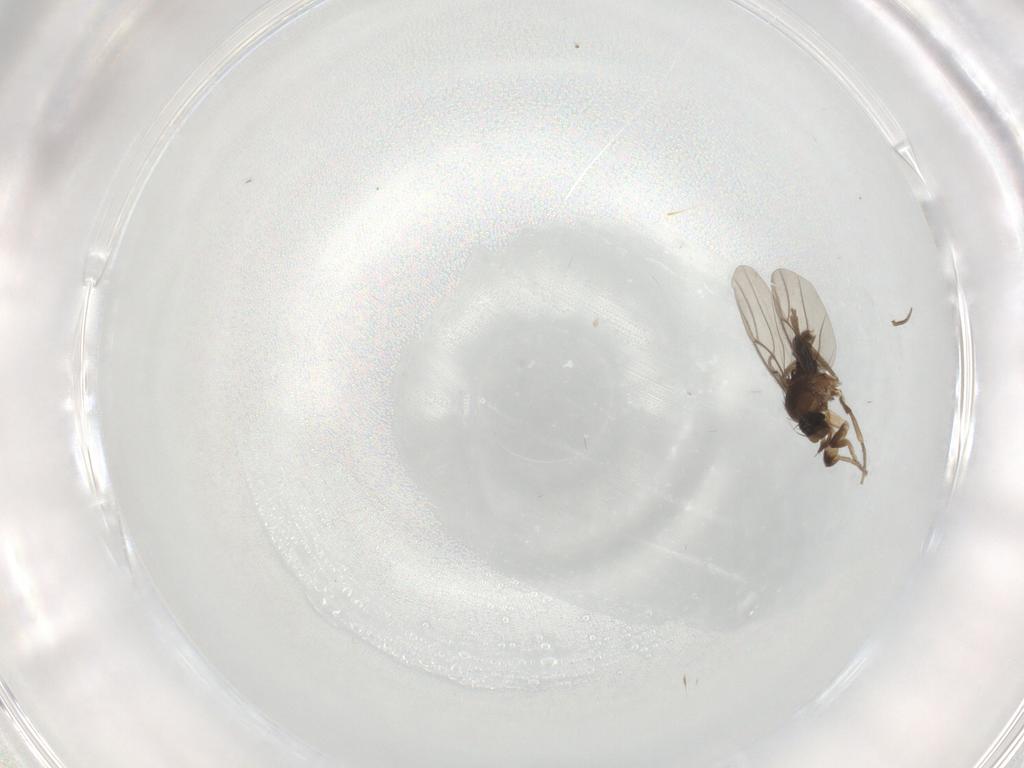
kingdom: Animalia
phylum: Arthropoda
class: Insecta
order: Diptera
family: Phoridae
